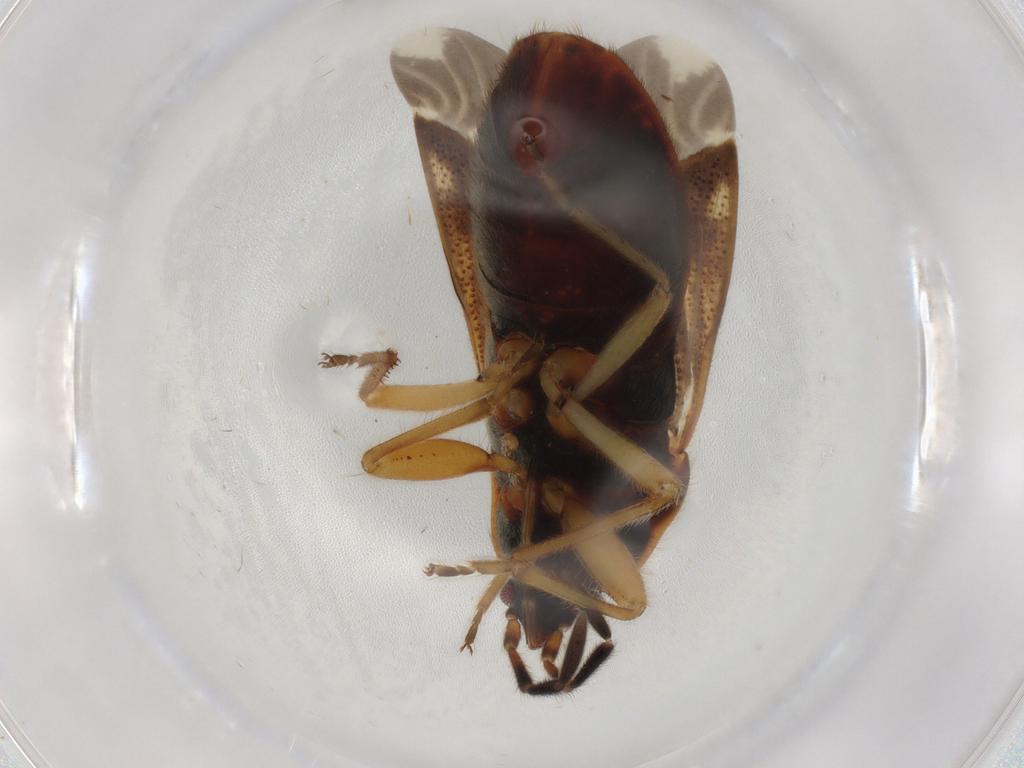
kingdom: Animalia
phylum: Arthropoda
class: Insecta
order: Hemiptera
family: Rhyparochromidae
